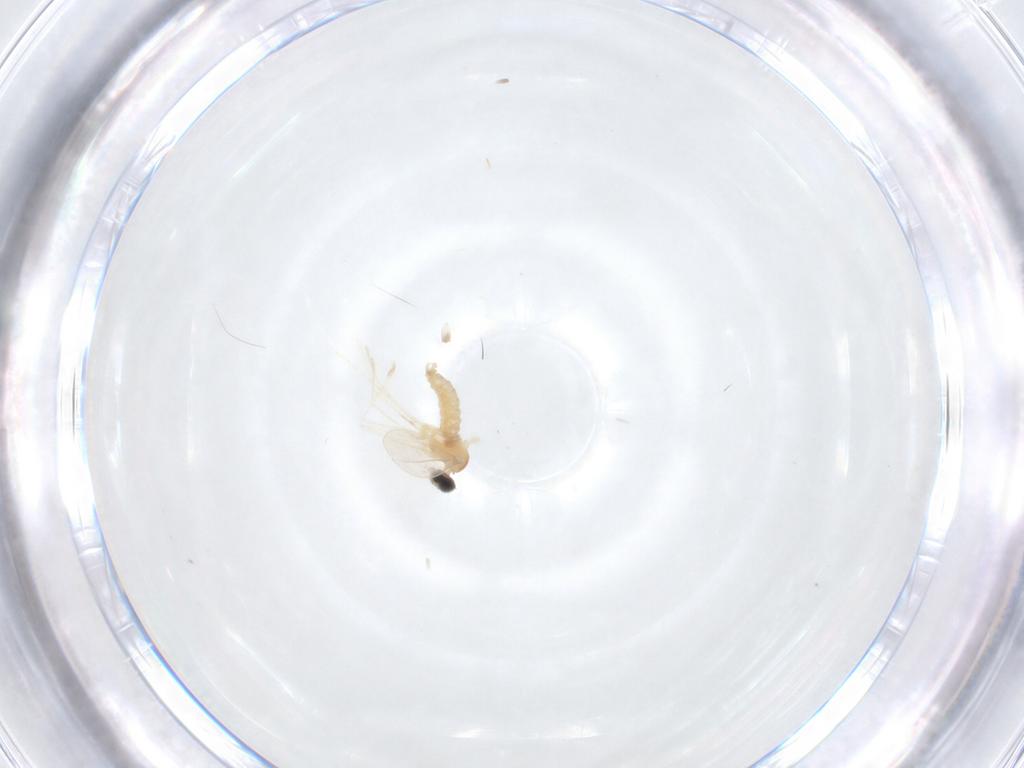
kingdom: Animalia
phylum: Arthropoda
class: Insecta
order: Diptera
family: Cecidomyiidae
